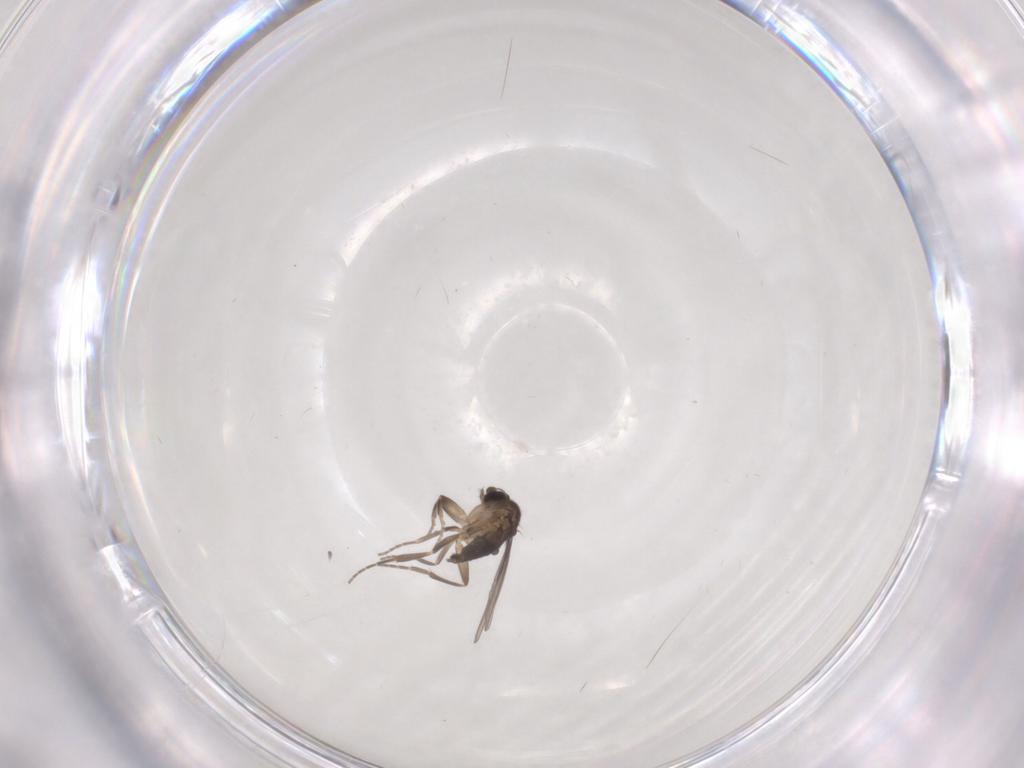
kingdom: Animalia
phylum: Arthropoda
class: Insecta
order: Diptera
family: Phoridae
